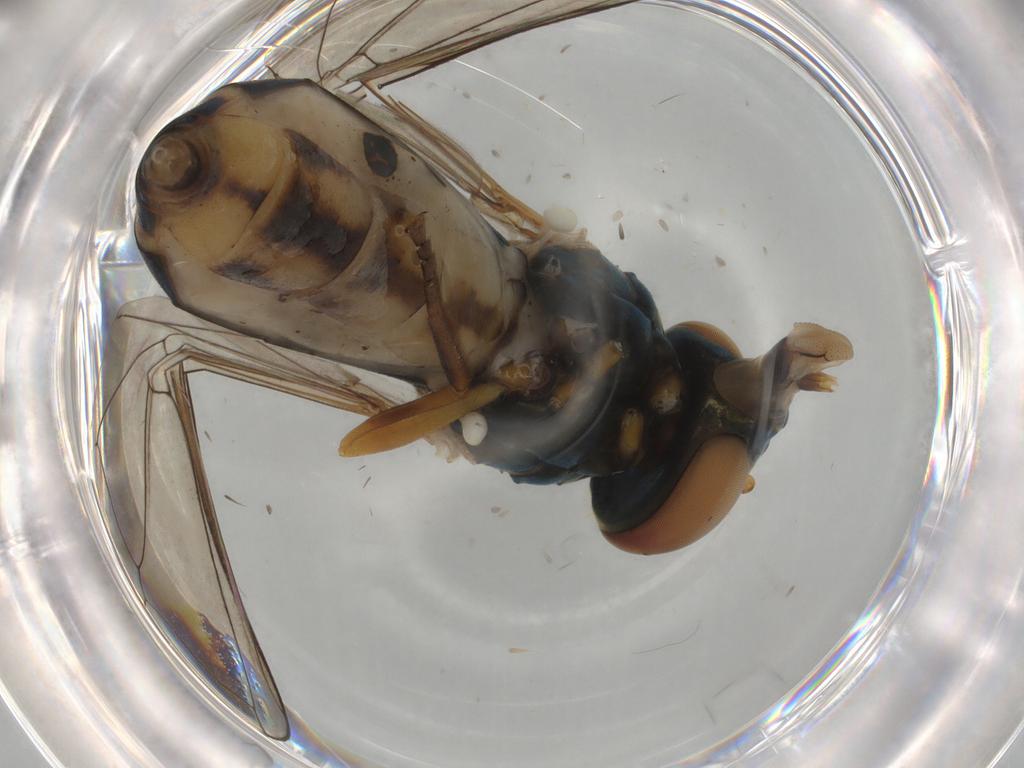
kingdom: Animalia
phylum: Arthropoda
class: Insecta
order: Diptera
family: Syrphidae
